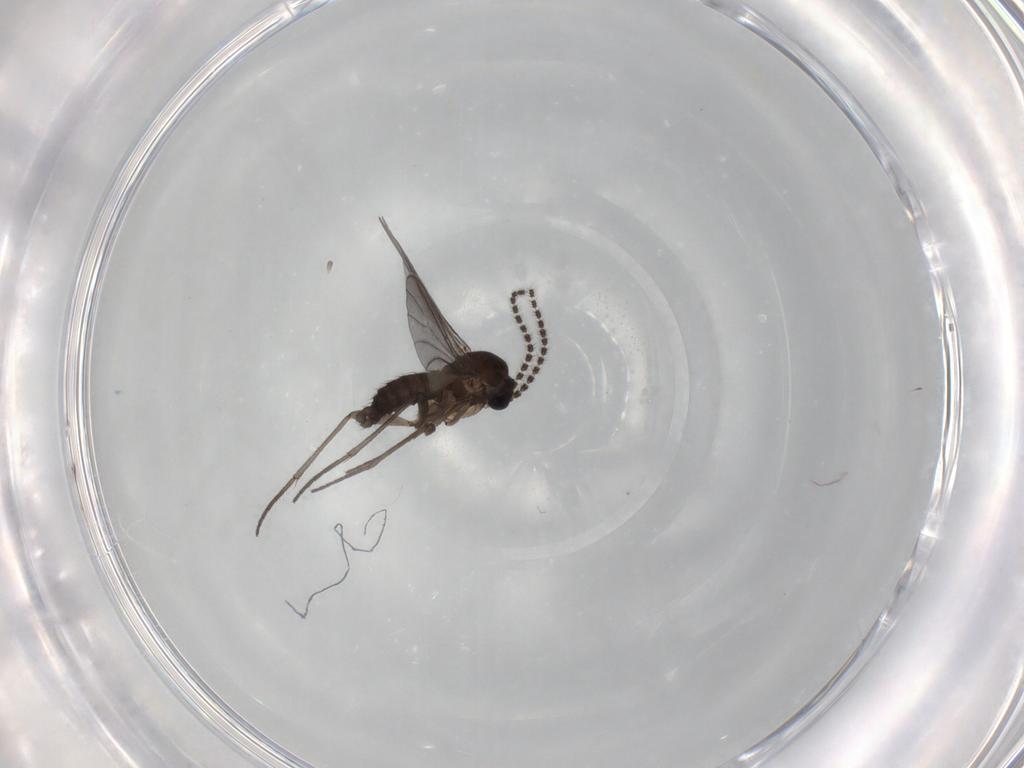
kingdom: Animalia
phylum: Arthropoda
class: Insecta
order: Diptera
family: Sciaridae
